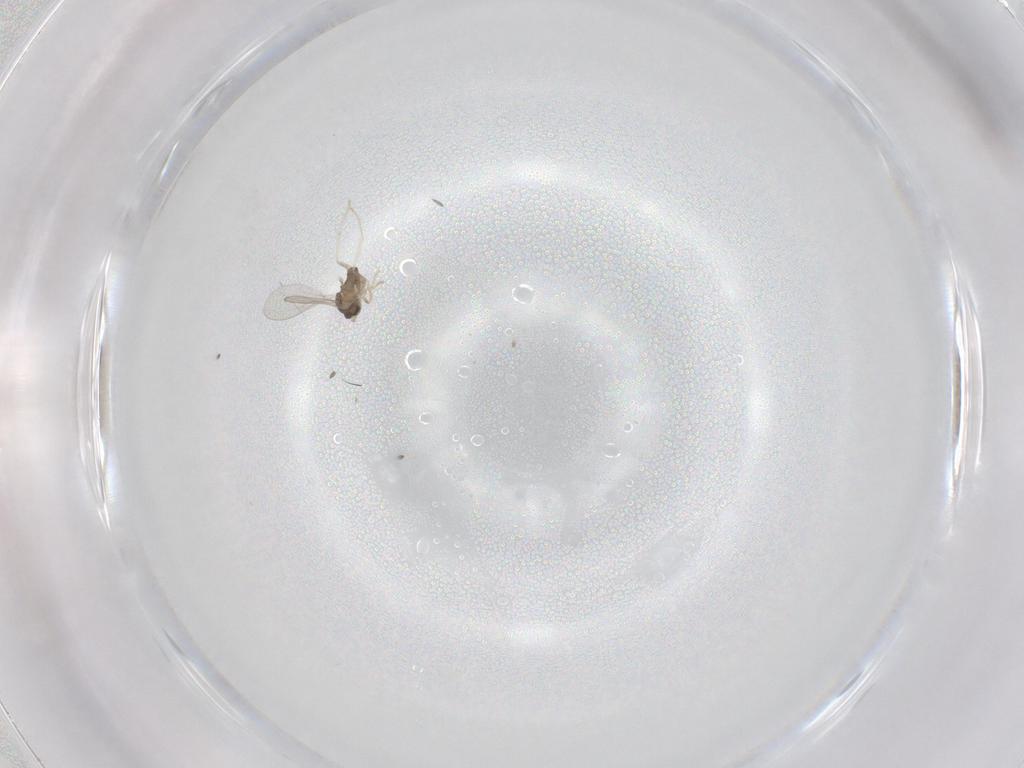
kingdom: Animalia
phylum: Arthropoda
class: Insecta
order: Diptera
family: Cecidomyiidae
